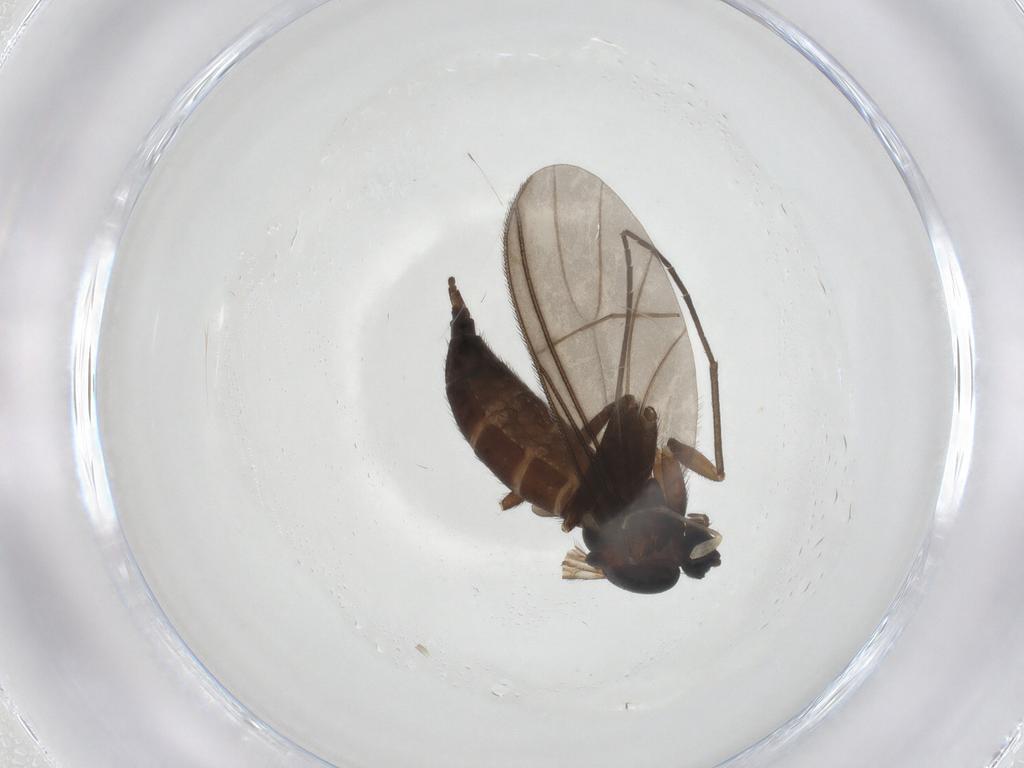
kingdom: Animalia
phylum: Arthropoda
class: Insecta
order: Diptera
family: Sciaridae
